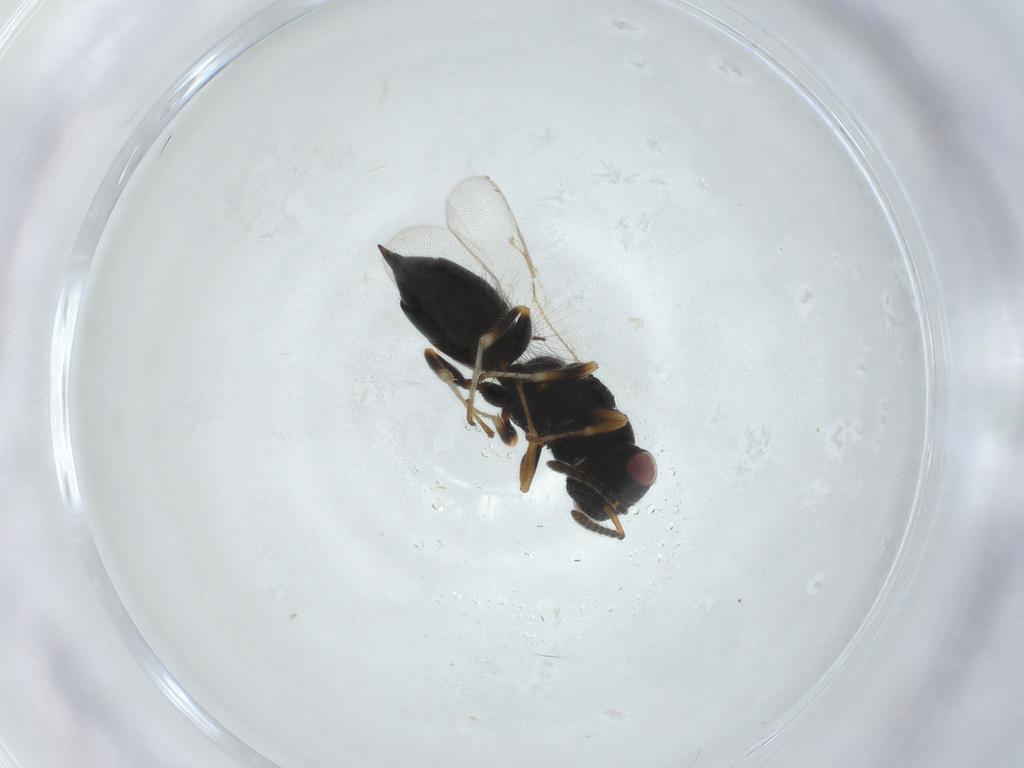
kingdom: Animalia
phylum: Arthropoda
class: Insecta
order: Hymenoptera
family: Eurytomidae
